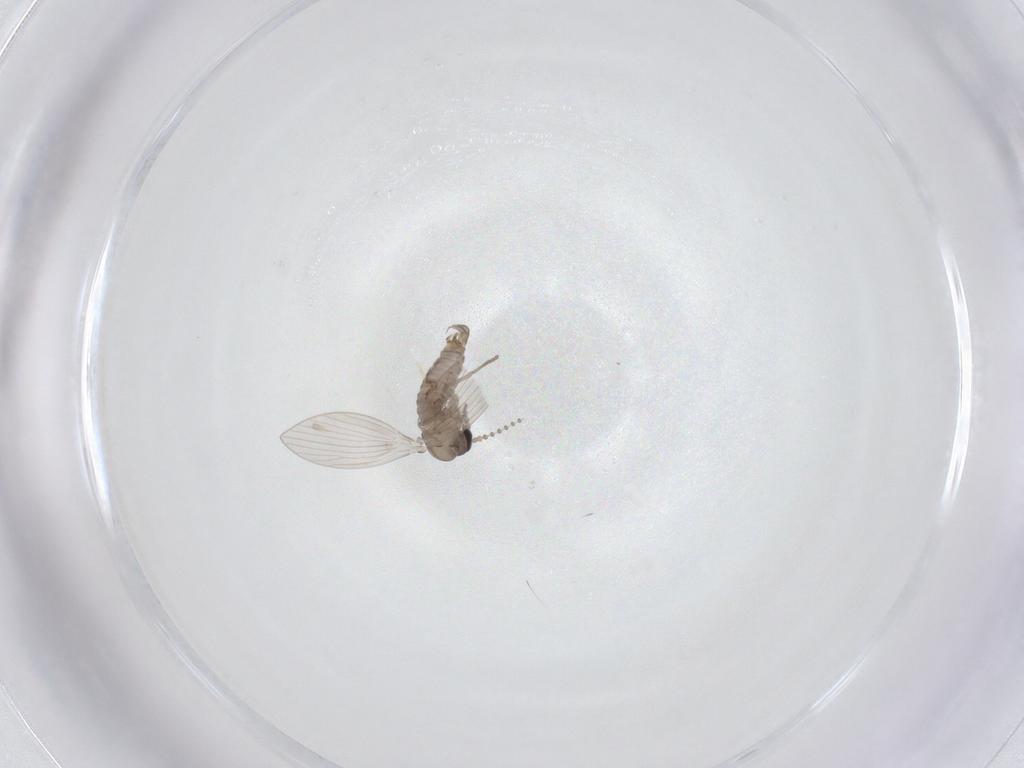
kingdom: Animalia
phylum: Arthropoda
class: Insecta
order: Diptera
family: Psychodidae
